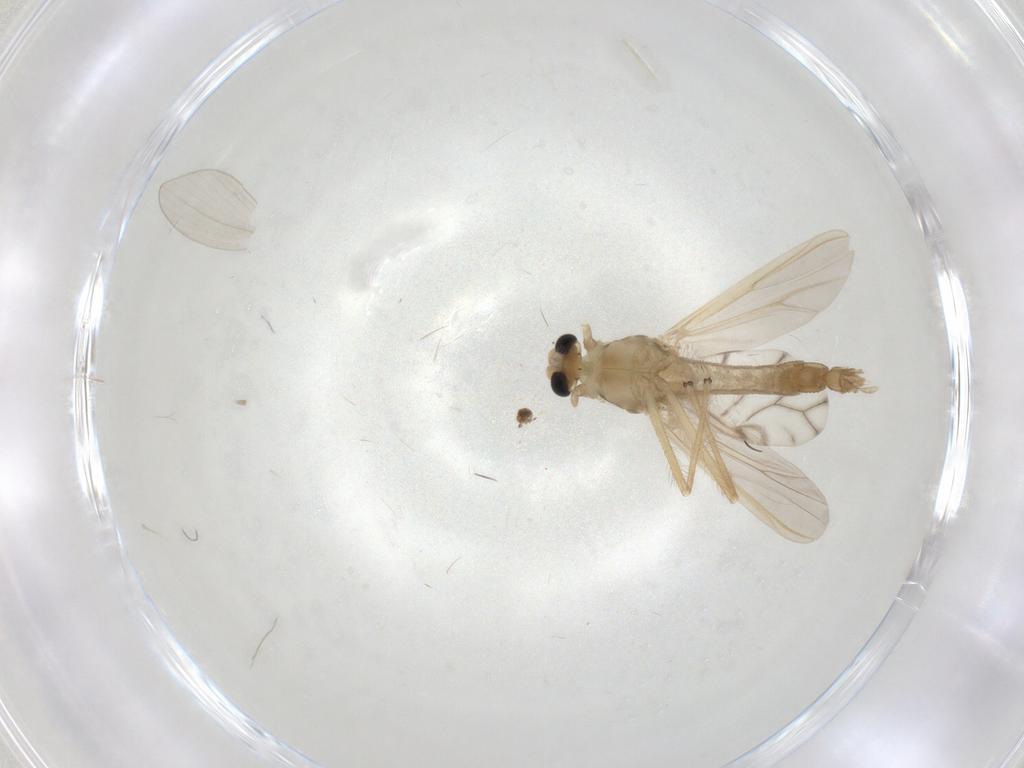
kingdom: Animalia
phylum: Arthropoda
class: Insecta
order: Diptera
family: Chironomidae
